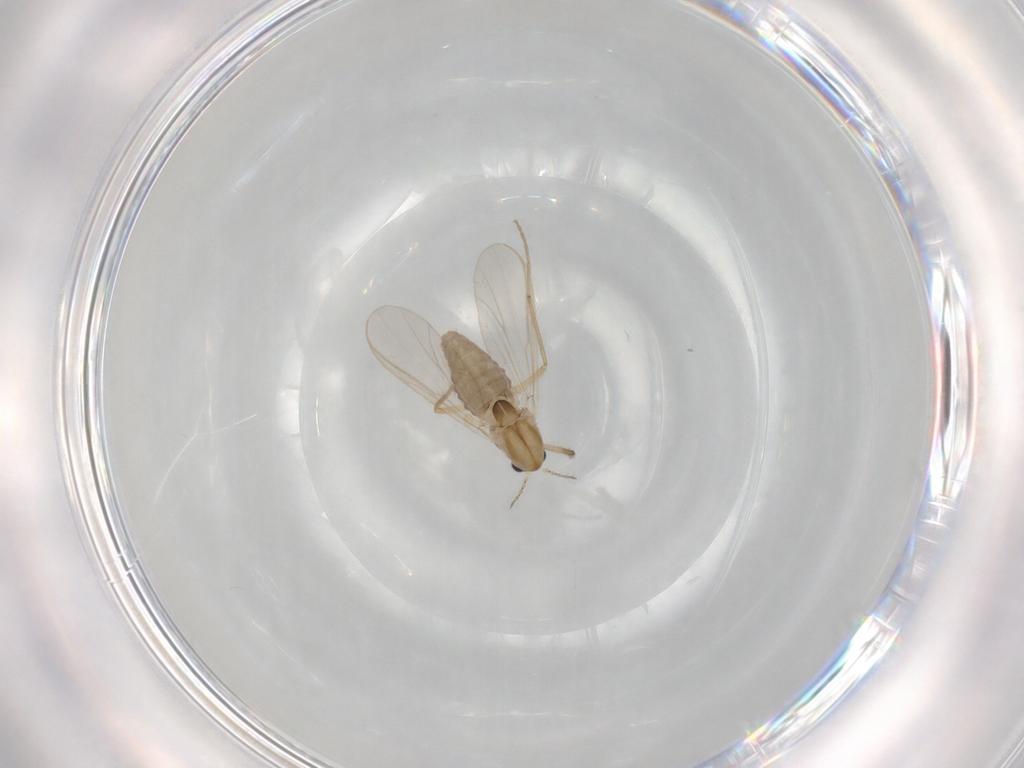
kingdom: Animalia
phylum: Arthropoda
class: Insecta
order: Diptera
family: Chironomidae
